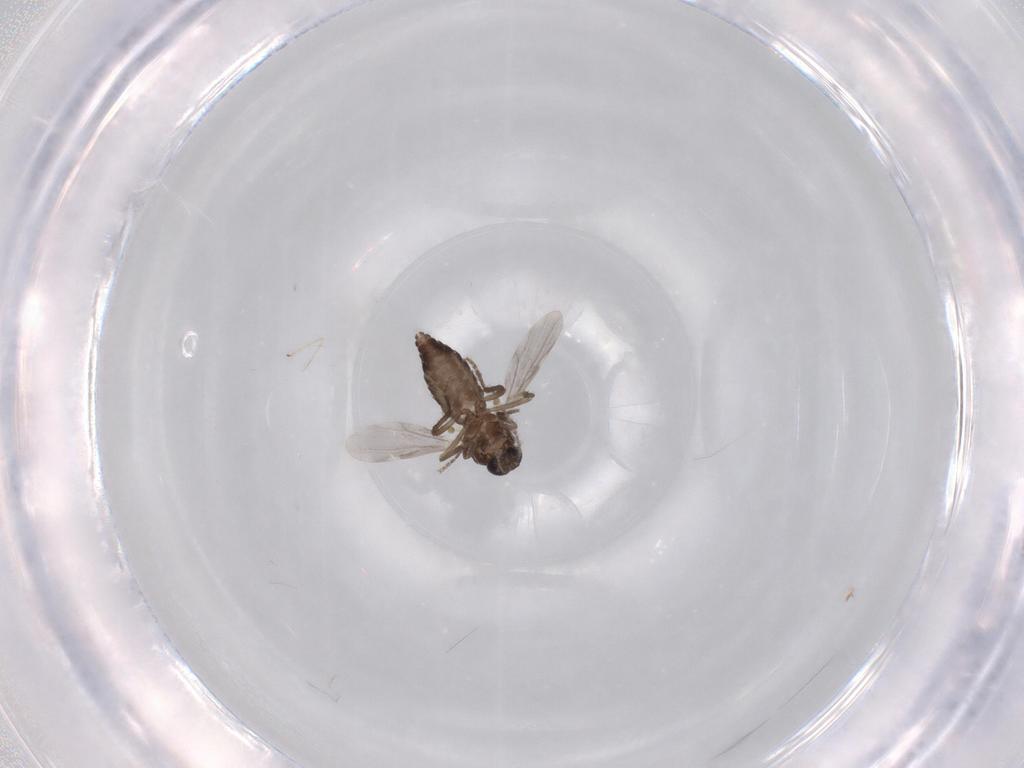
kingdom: Animalia
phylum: Arthropoda
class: Insecta
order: Diptera
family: Ceratopogonidae
